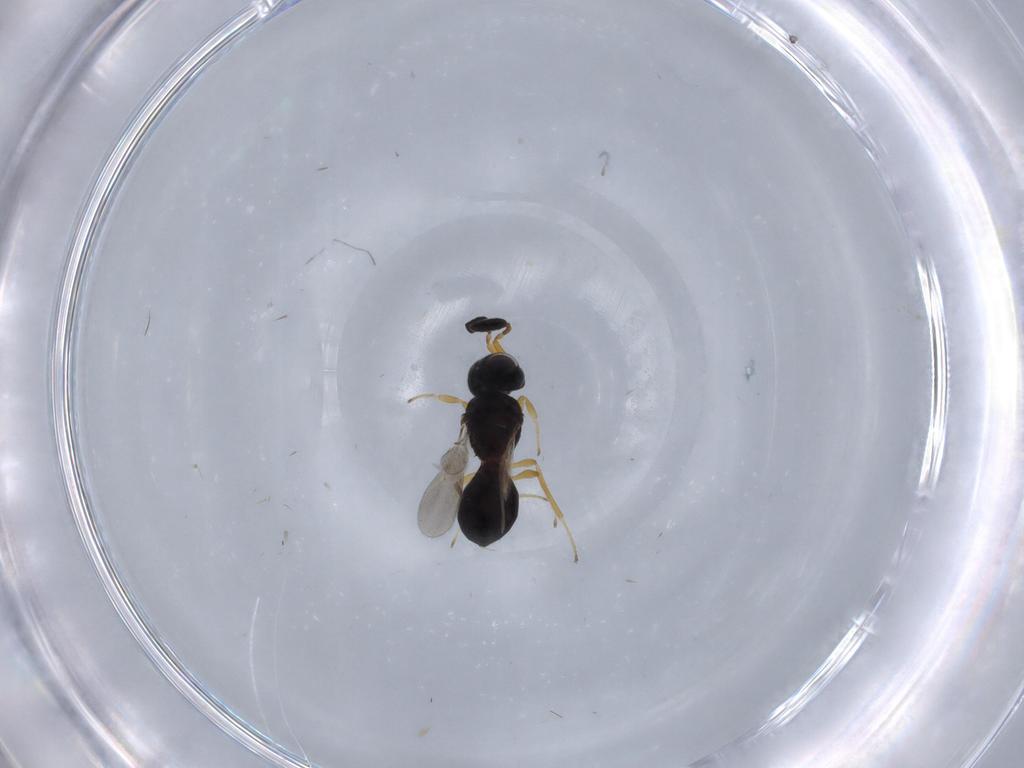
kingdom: Animalia
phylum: Arthropoda
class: Insecta
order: Hymenoptera
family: Scelionidae
